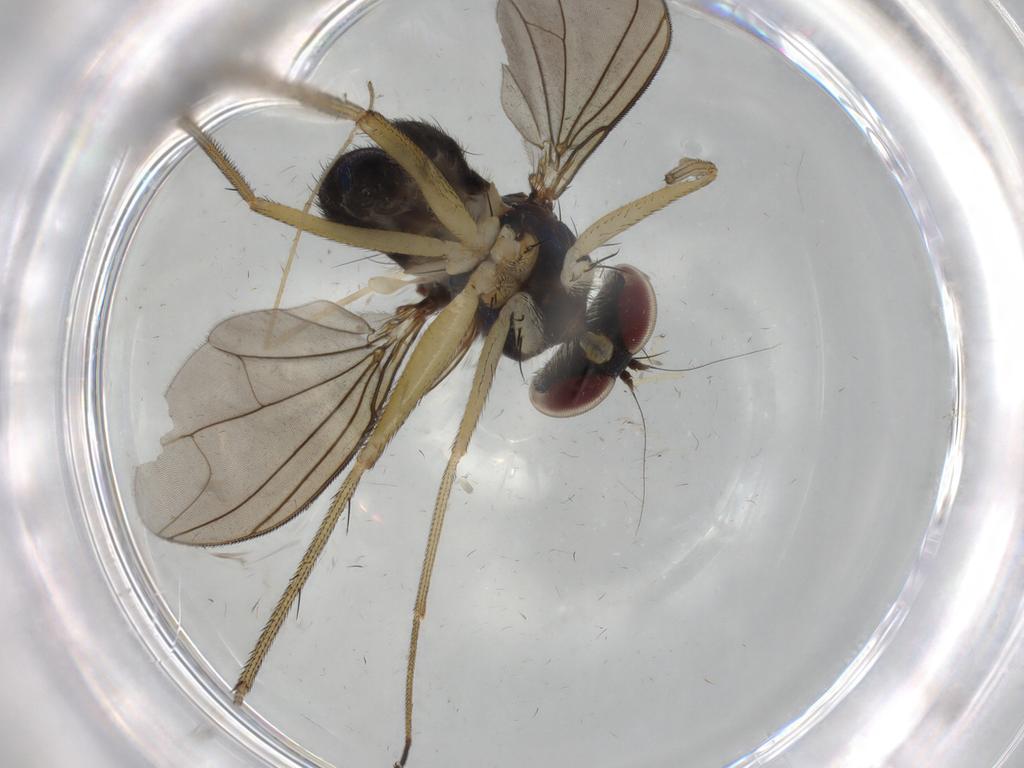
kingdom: Animalia
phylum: Arthropoda
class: Insecta
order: Diptera
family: Dolichopodidae
